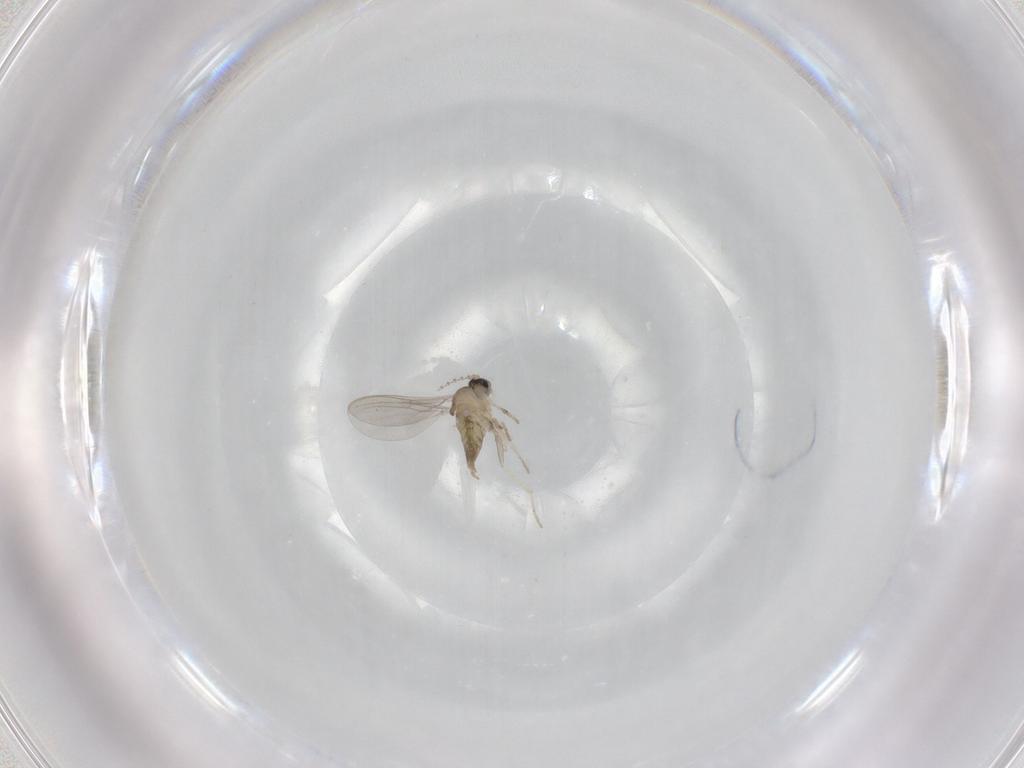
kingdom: Animalia
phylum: Arthropoda
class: Insecta
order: Diptera
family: Cecidomyiidae
